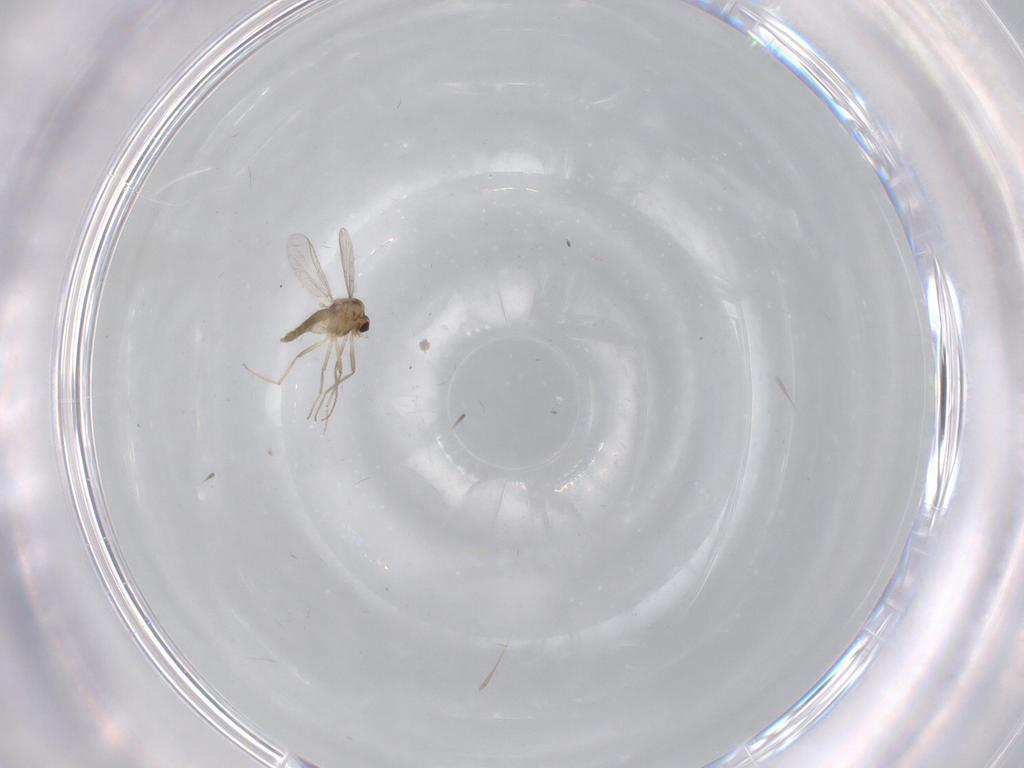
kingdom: Animalia
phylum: Arthropoda
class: Insecta
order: Diptera
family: Chironomidae
